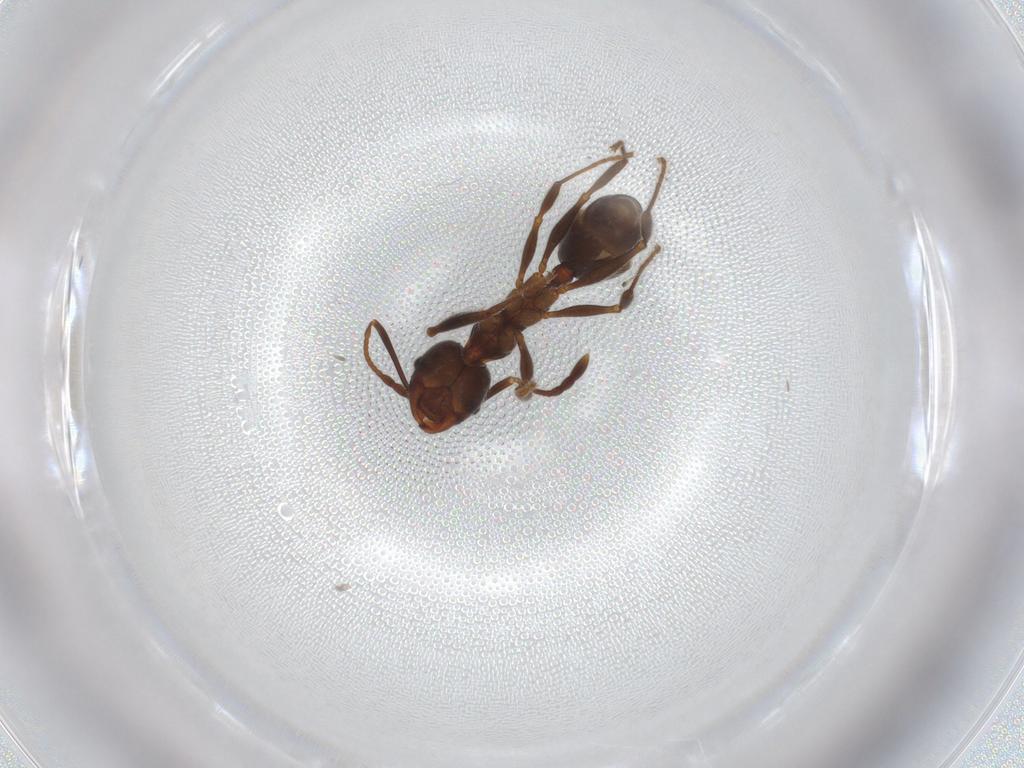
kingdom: Animalia
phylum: Arthropoda
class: Insecta
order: Hymenoptera
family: Formicidae
